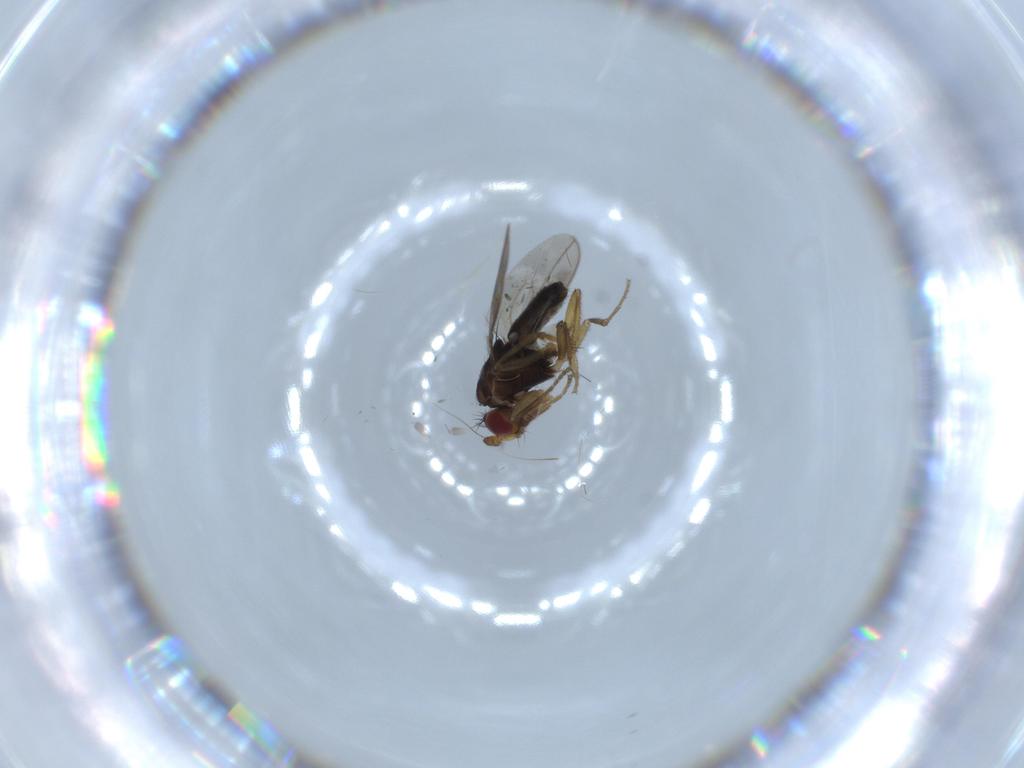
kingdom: Animalia
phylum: Arthropoda
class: Insecta
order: Diptera
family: Sphaeroceridae
